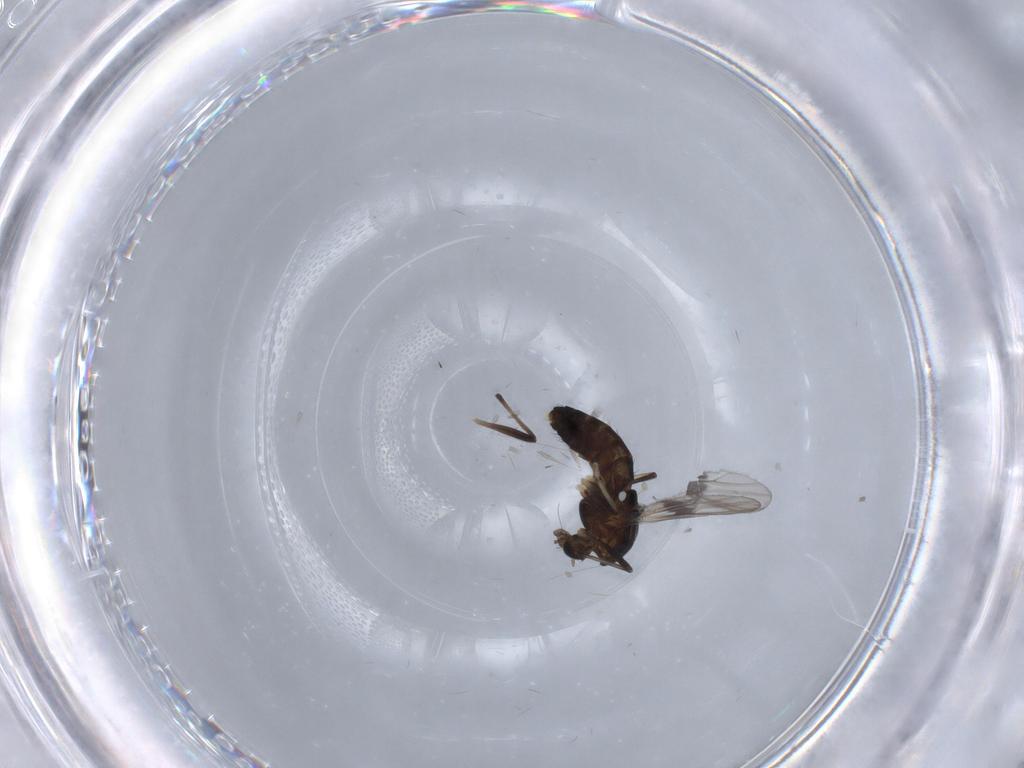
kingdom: Animalia
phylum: Arthropoda
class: Insecta
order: Diptera
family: Chironomidae
